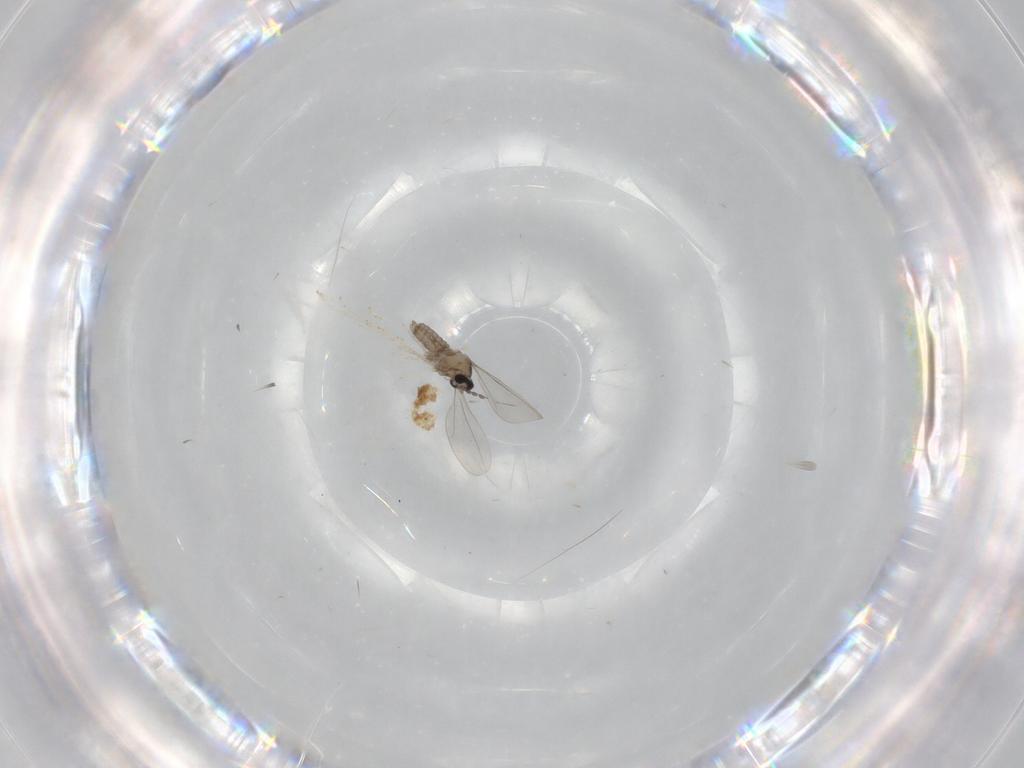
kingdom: Animalia
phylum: Arthropoda
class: Insecta
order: Diptera
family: Cecidomyiidae
